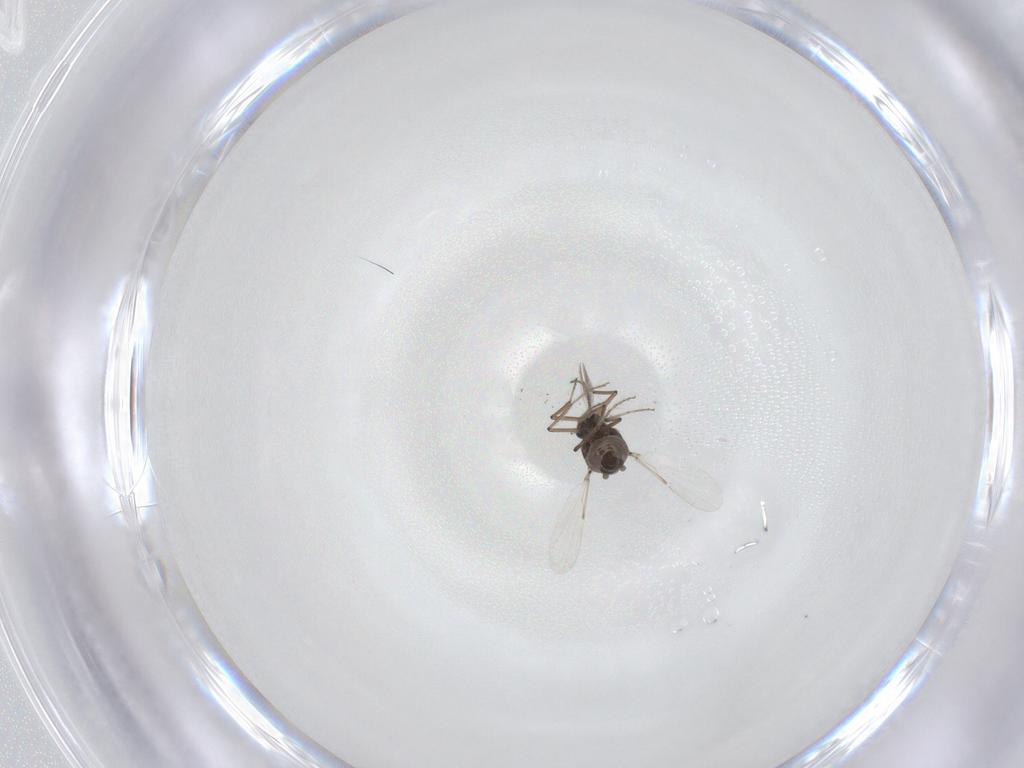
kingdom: Animalia
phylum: Arthropoda
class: Insecta
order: Diptera
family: Ceratopogonidae
